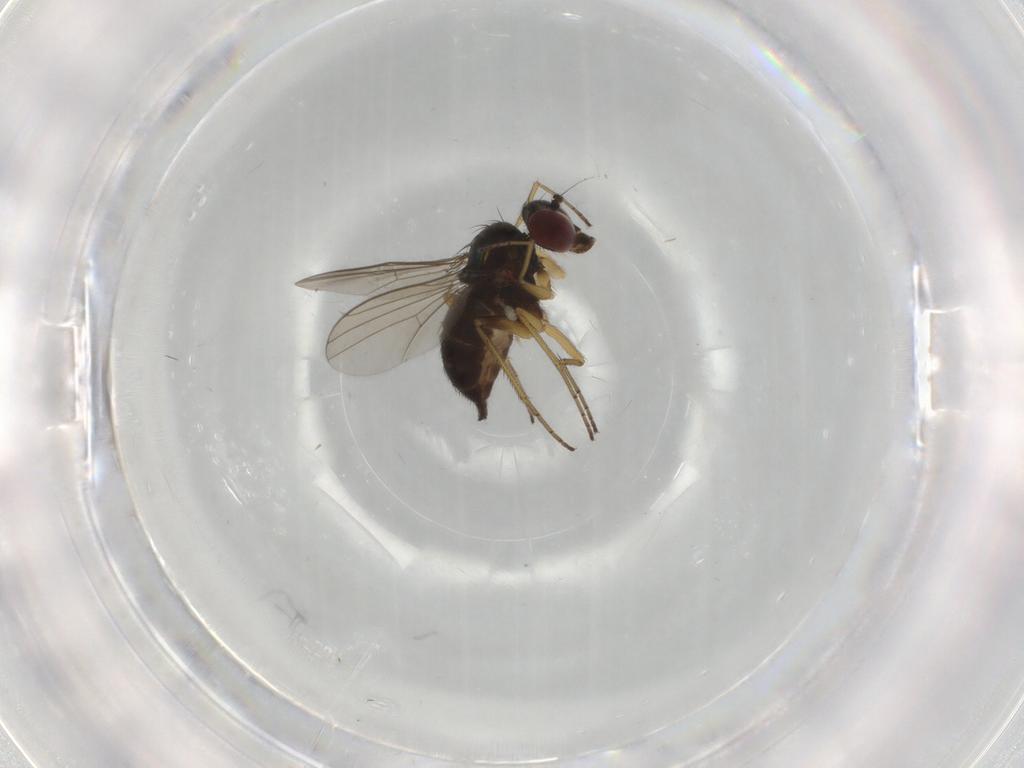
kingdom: Animalia
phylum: Arthropoda
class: Insecta
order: Diptera
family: Dolichopodidae
